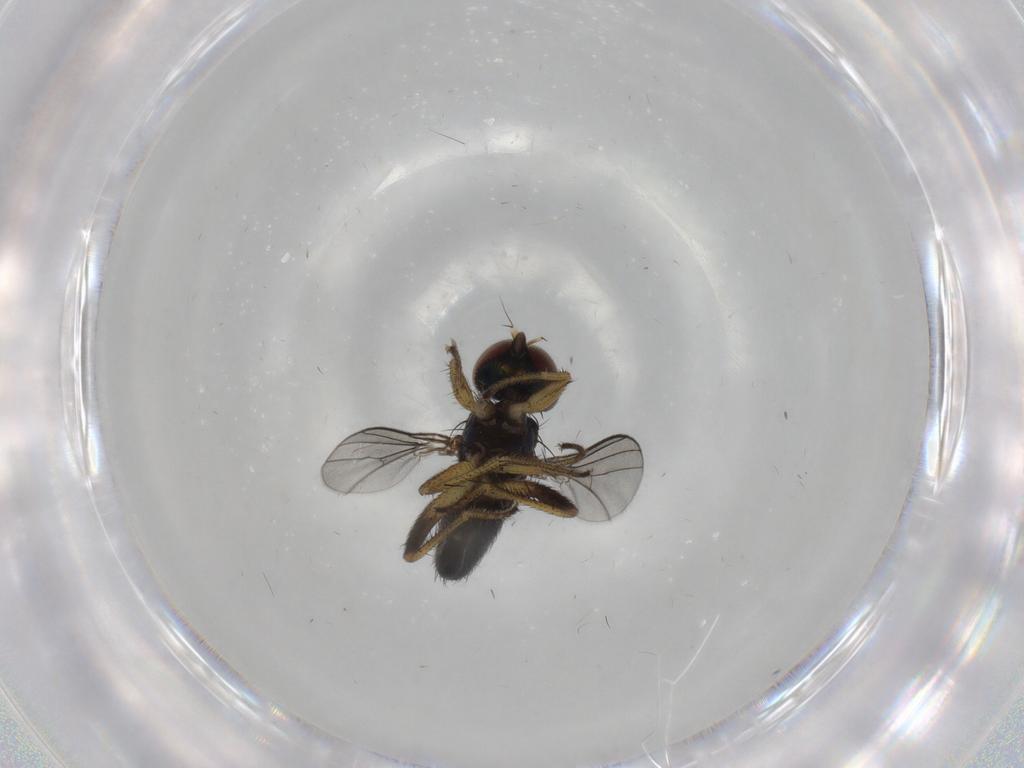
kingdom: Animalia
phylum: Arthropoda
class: Insecta
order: Diptera
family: Dolichopodidae
